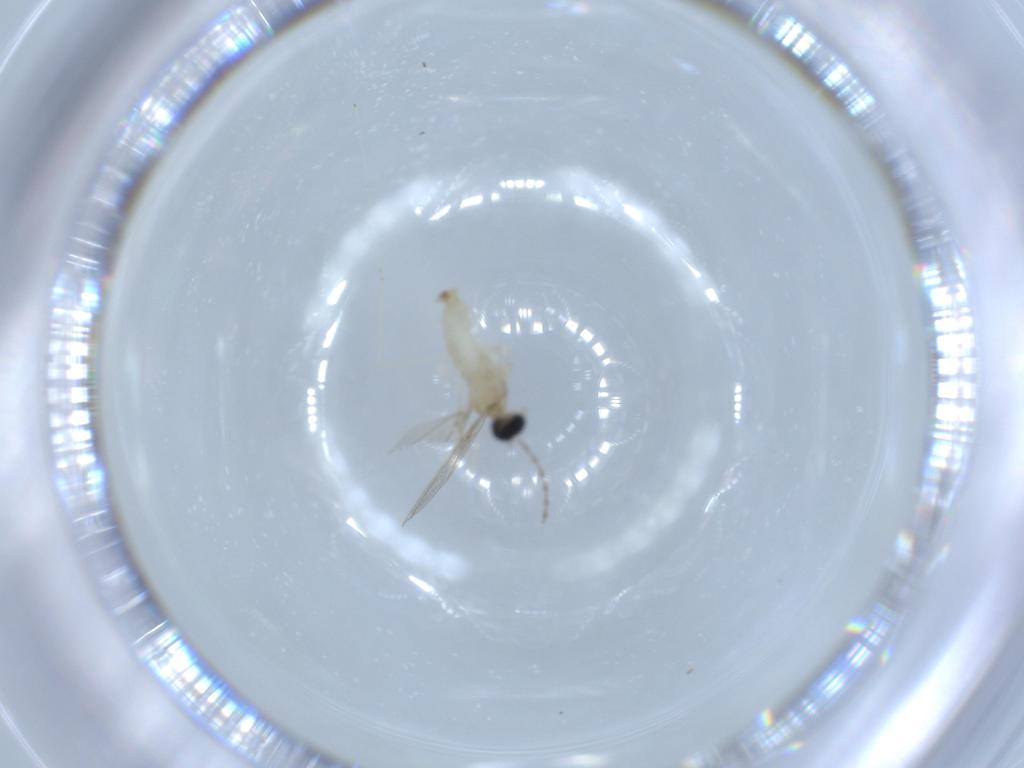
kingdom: Animalia
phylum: Arthropoda
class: Insecta
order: Diptera
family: Cecidomyiidae
